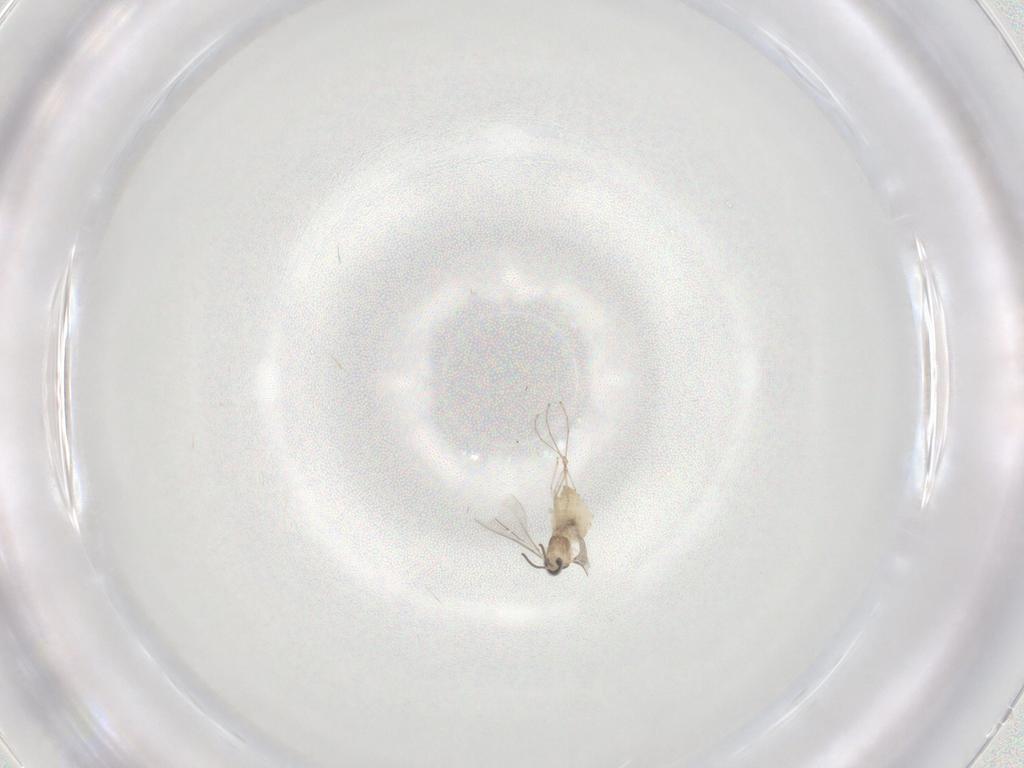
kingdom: Animalia
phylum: Arthropoda
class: Insecta
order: Diptera
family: Cecidomyiidae
